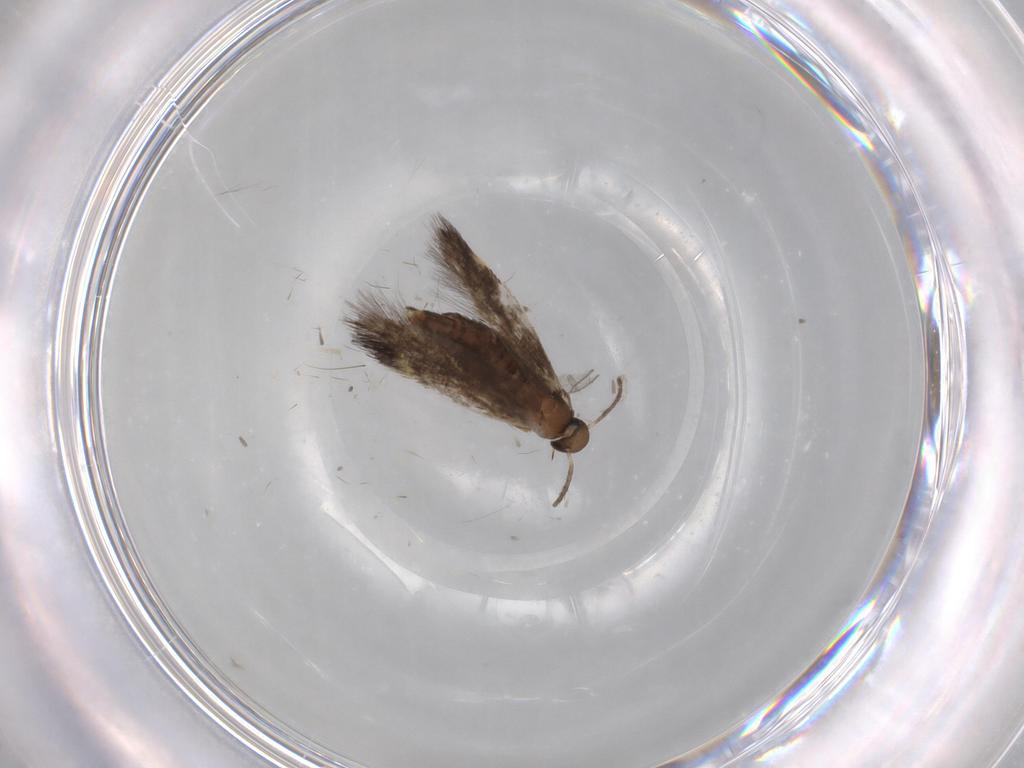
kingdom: Animalia
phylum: Arthropoda
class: Insecta
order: Lepidoptera
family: Heliozelidae
